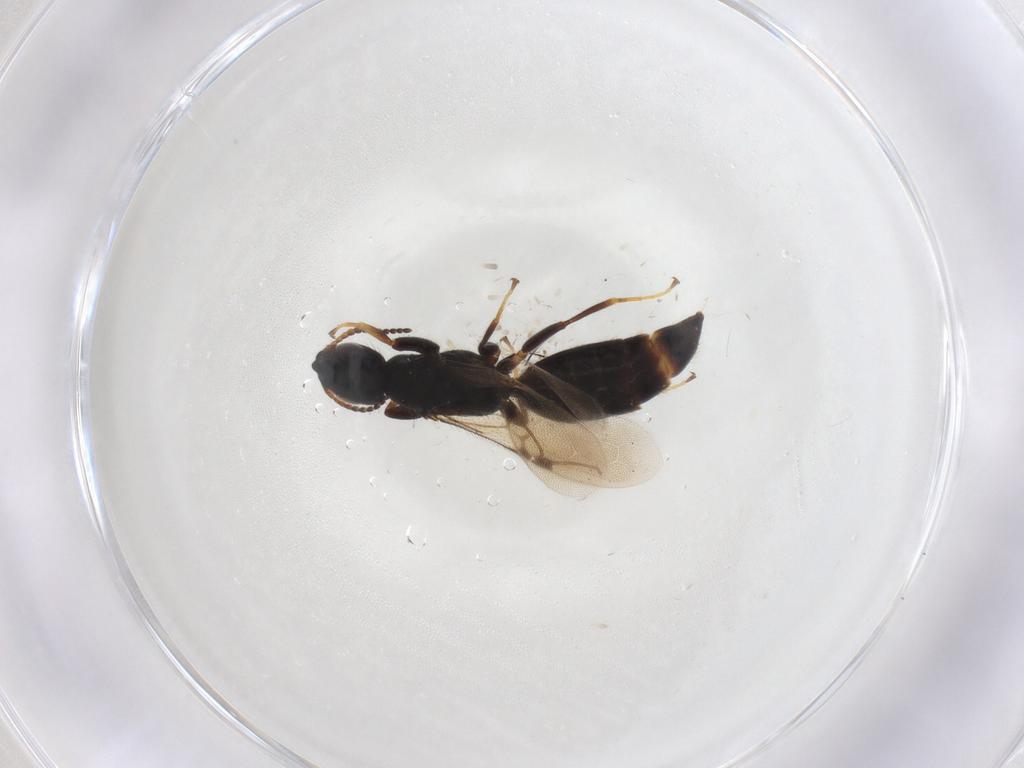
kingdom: Animalia
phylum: Arthropoda
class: Insecta
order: Hymenoptera
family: Bethylidae
